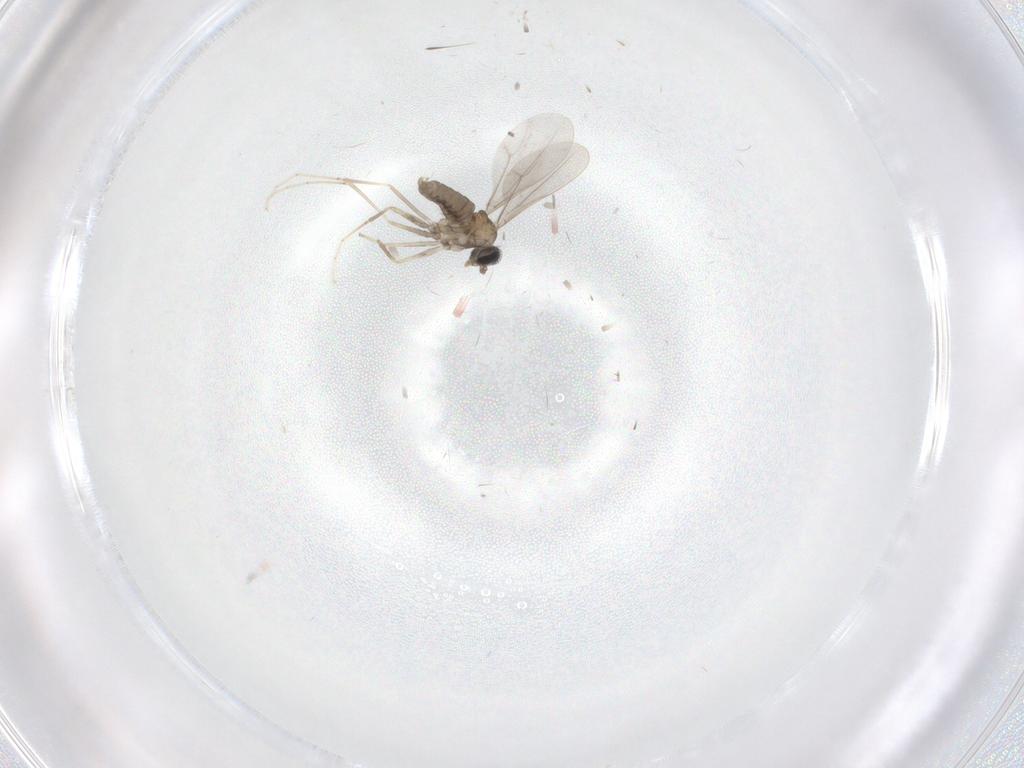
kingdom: Animalia
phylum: Arthropoda
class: Insecta
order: Diptera
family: Cecidomyiidae
